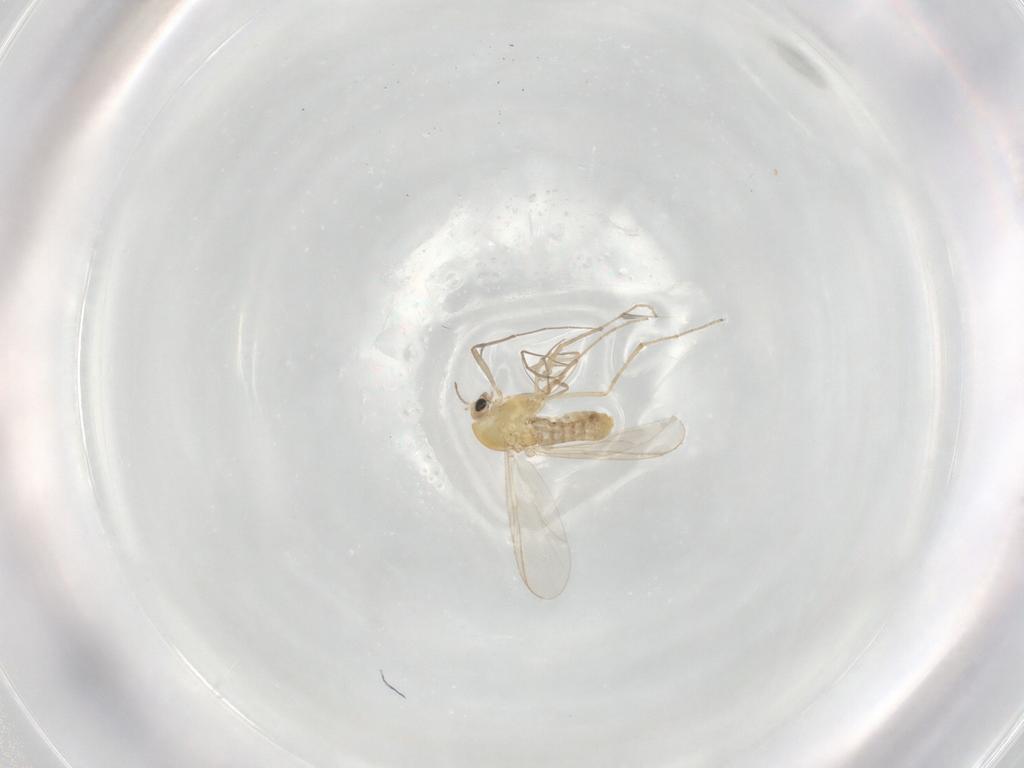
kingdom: Animalia
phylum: Arthropoda
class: Insecta
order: Diptera
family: Chironomidae
